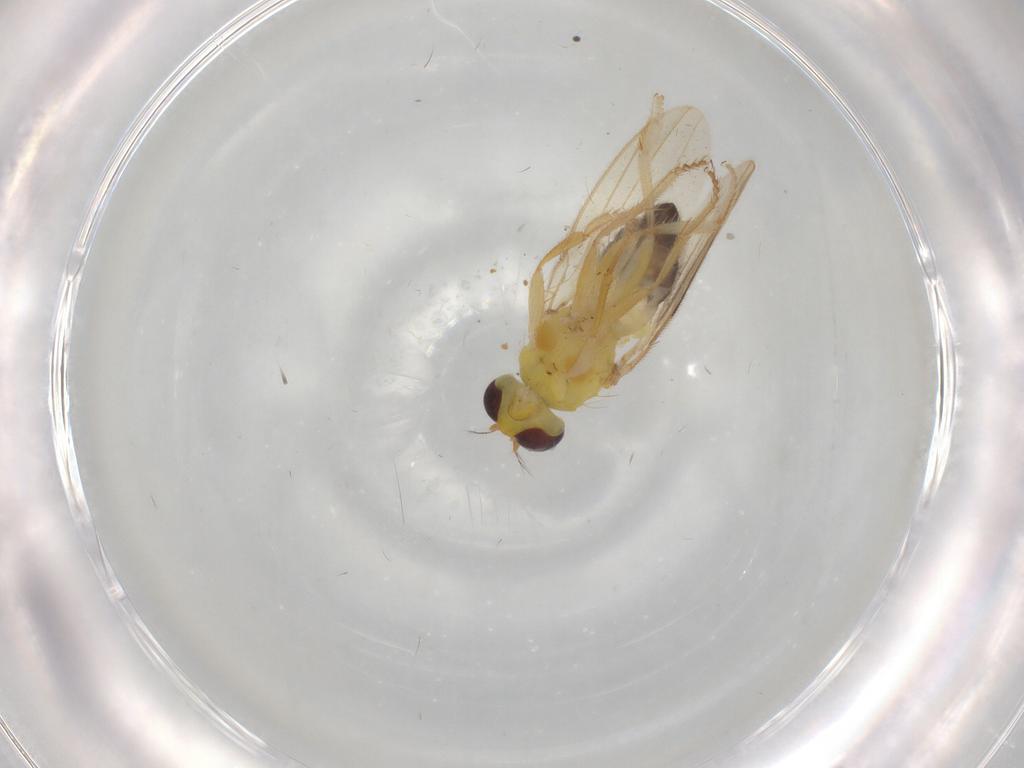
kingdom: Animalia
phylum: Arthropoda
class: Insecta
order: Diptera
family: Periscelididae
